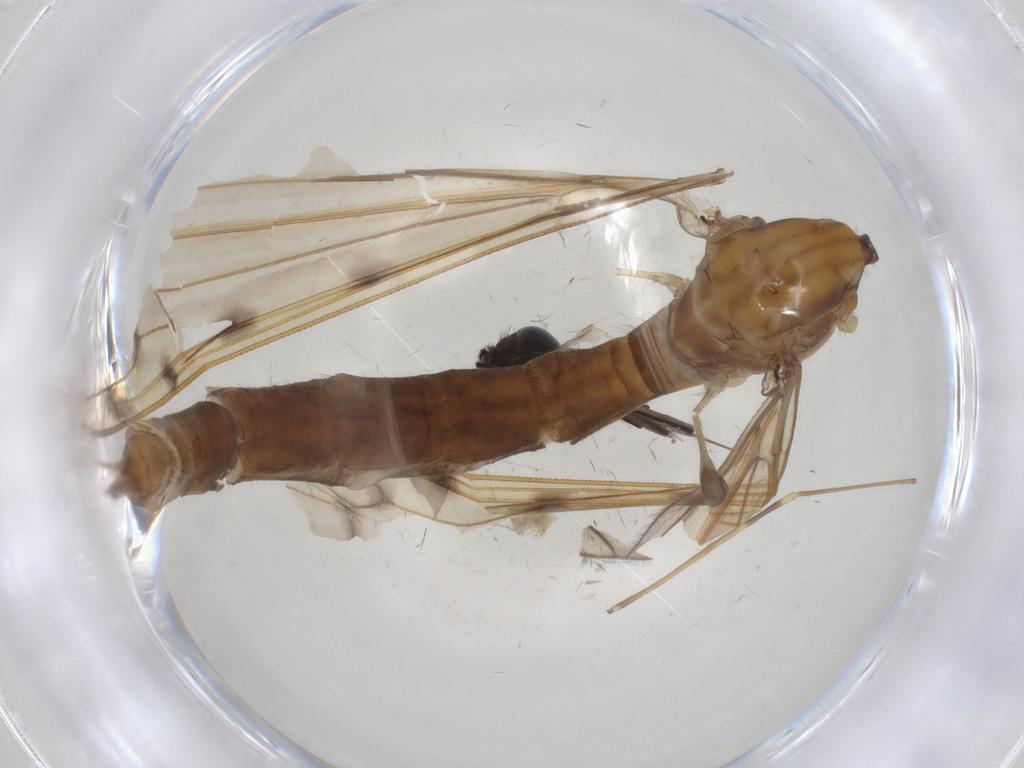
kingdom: Animalia
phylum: Arthropoda
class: Insecta
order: Diptera
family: Limoniidae
